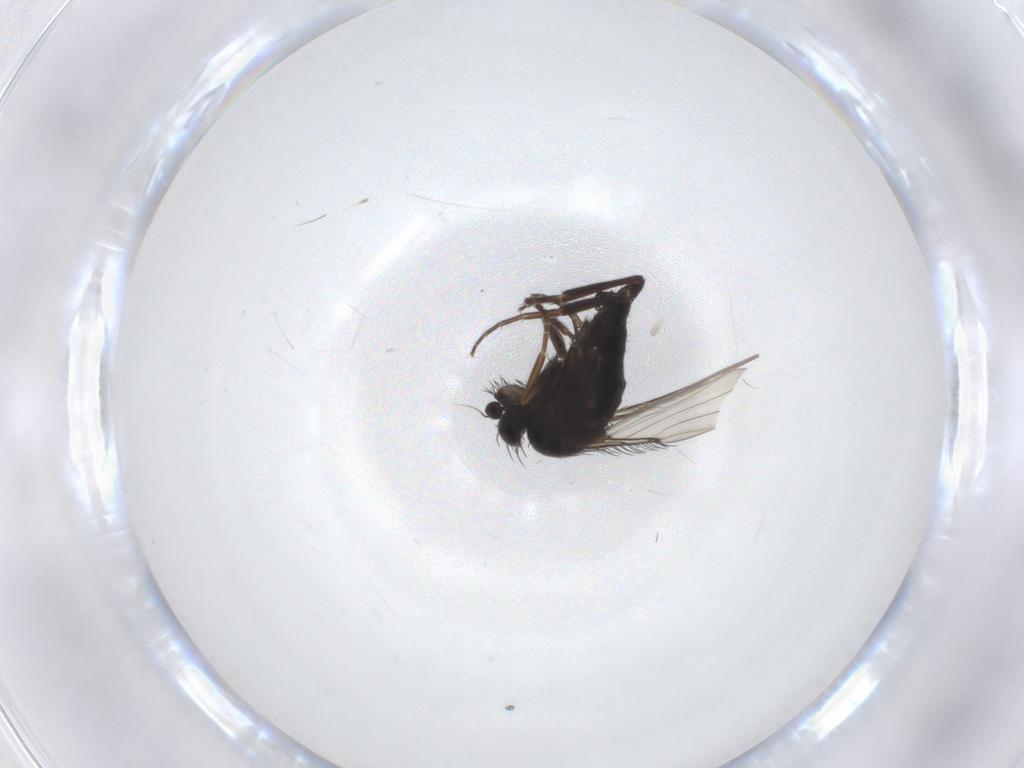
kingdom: Animalia
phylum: Arthropoda
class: Insecta
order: Diptera
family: Phoridae
